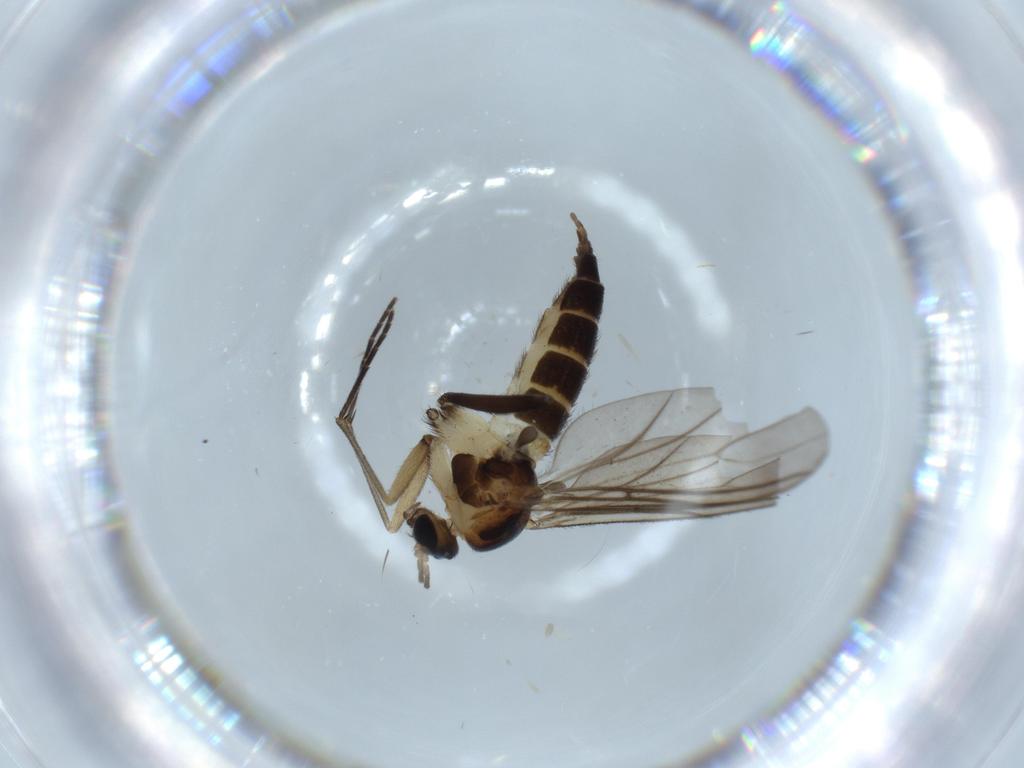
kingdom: Animalia
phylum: Arthropoda
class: Insecta
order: Diptera
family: Sciaridae
